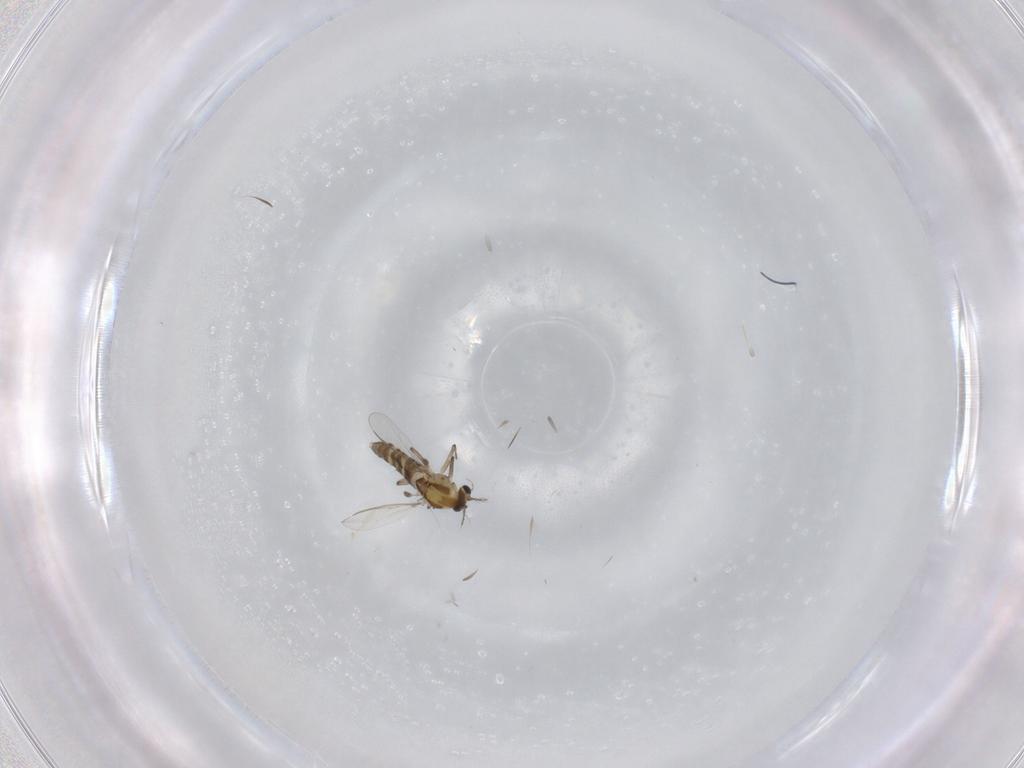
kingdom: Animalia
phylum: Arthropoda
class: Insecta
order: Diptera
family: Chironomidae
